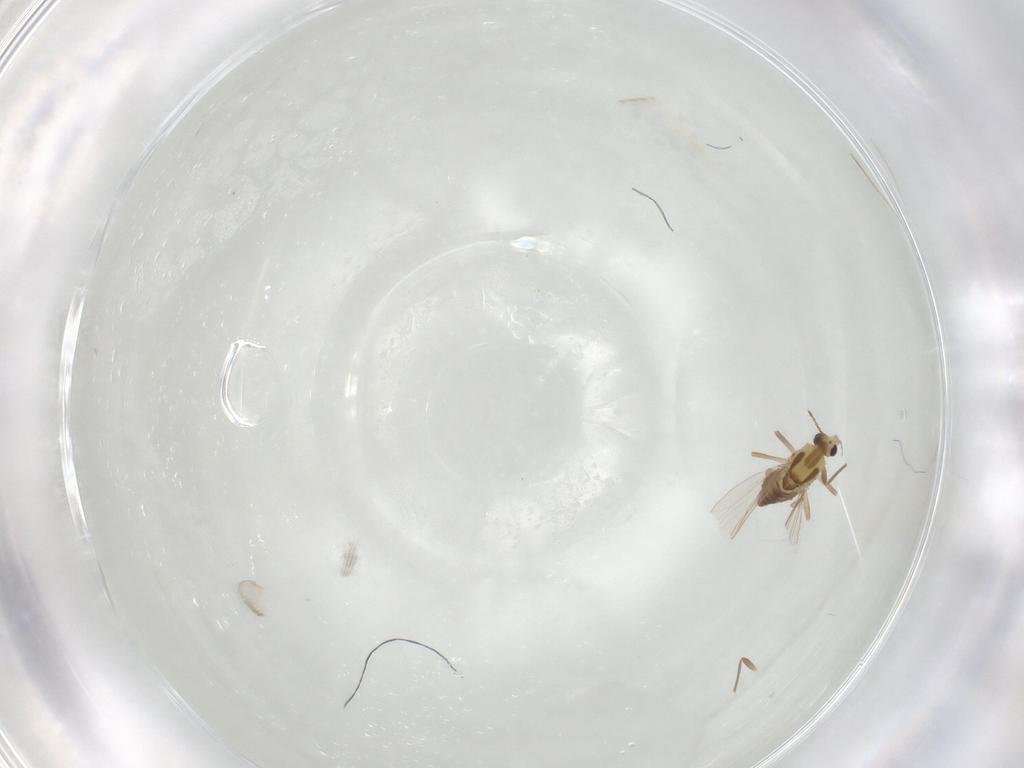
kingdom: Animalia
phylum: Arthropoda
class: Insecta
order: Diptera
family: Chironomidae
